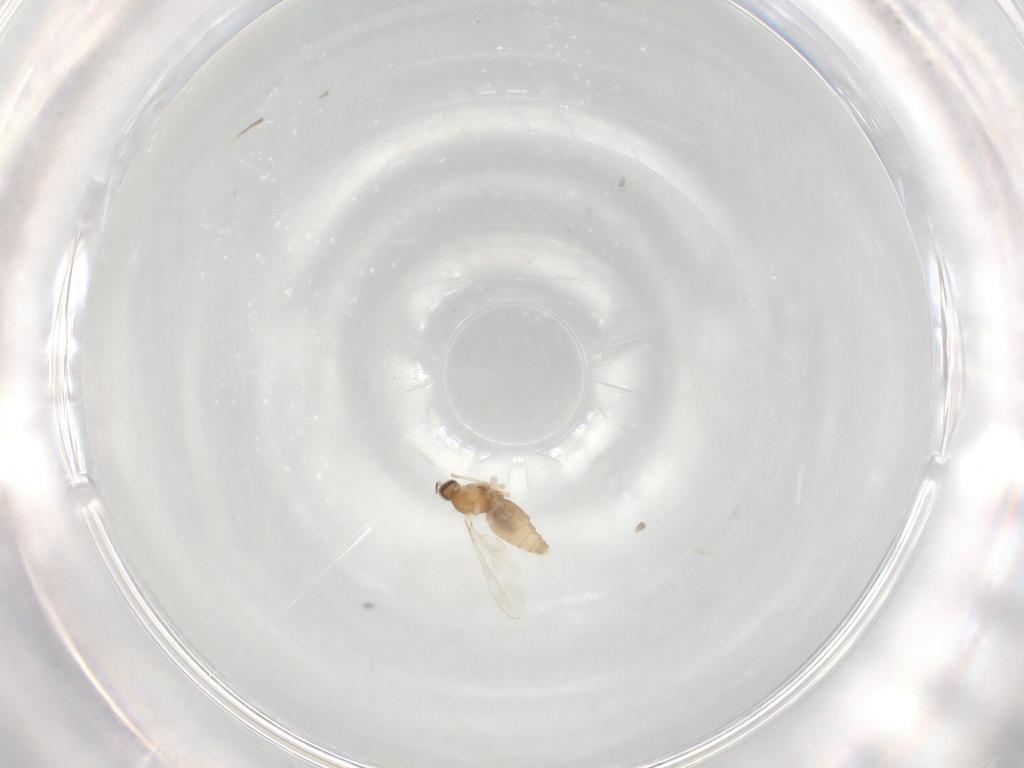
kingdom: Animalia
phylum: Arthropoda
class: Insecta
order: Diptera
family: Cecidomyiidae
